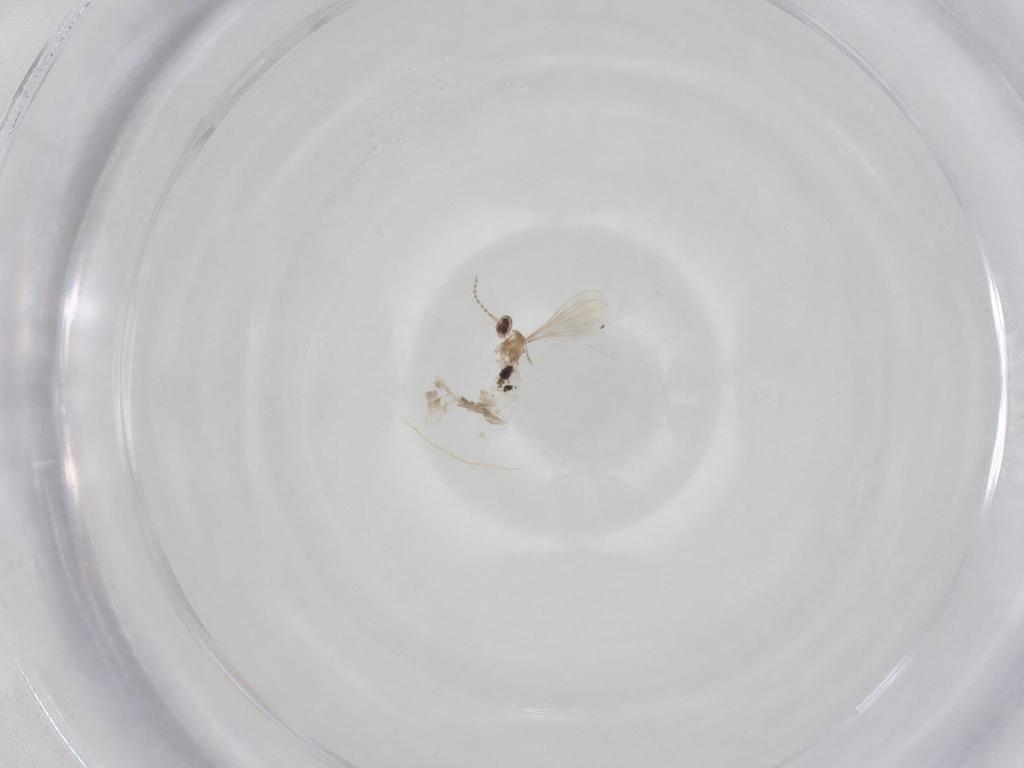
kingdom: Animalia
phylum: Arthropoda
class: Insecta
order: Diptera
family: Cecidomyiidae
